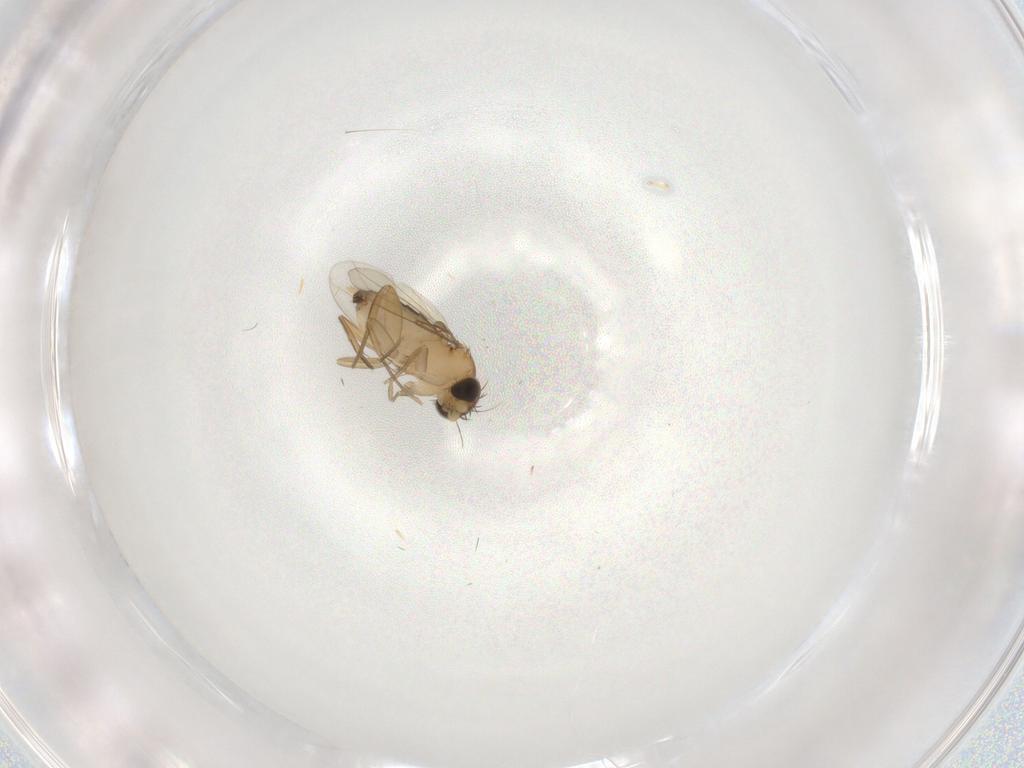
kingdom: Animalia
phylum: Arthropoda
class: Insecta
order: Diptera
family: Phoridae
